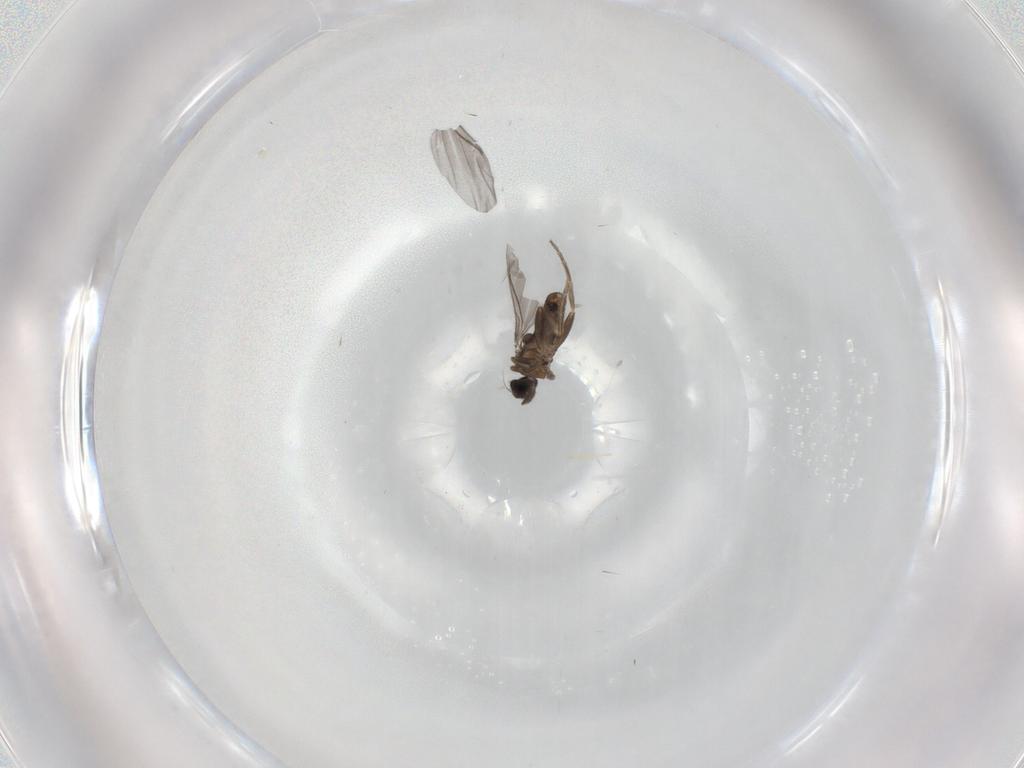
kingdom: Animalia
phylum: Arthropoda
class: Insecta
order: Diptera
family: Phoridae
